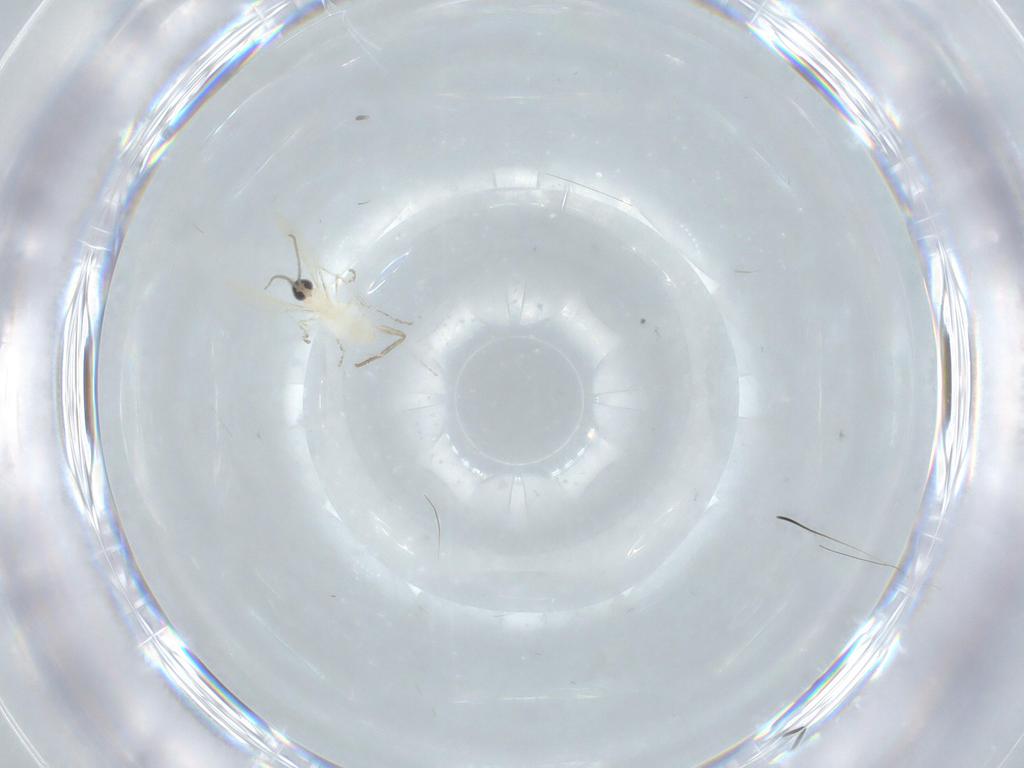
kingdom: Animalia
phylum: Arthropoda
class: Insecta
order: Diptera
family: Cecidomyiidae
